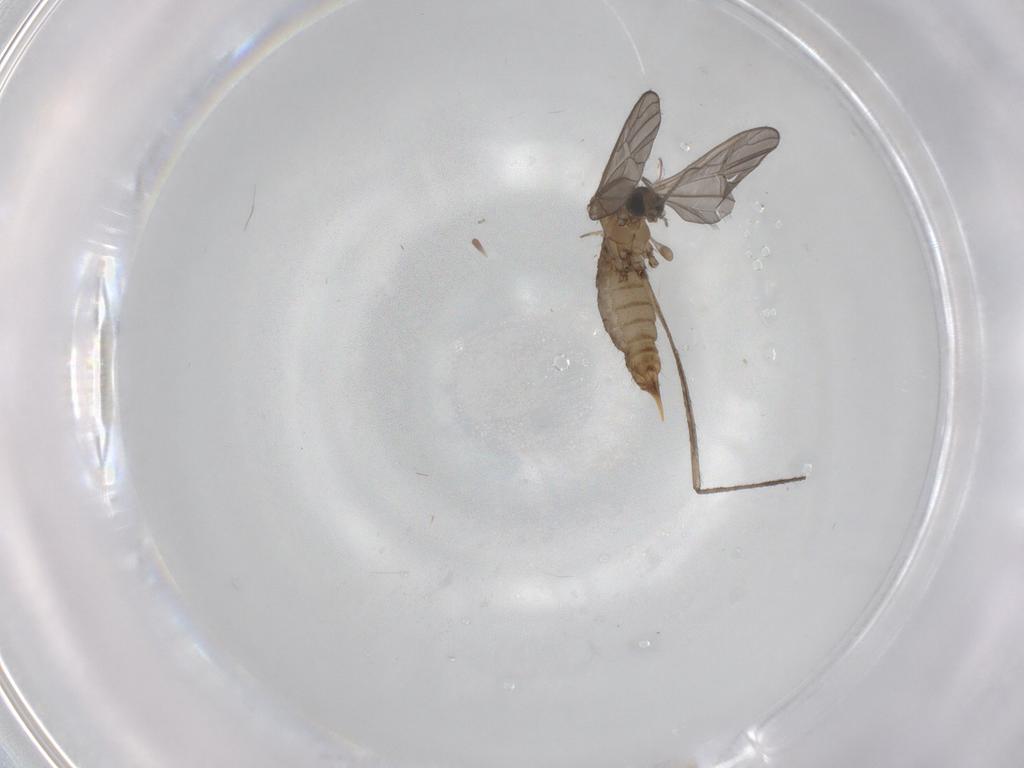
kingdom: Animalia
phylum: Arthropoda
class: Insecta
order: Diptera
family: Limoniidae
